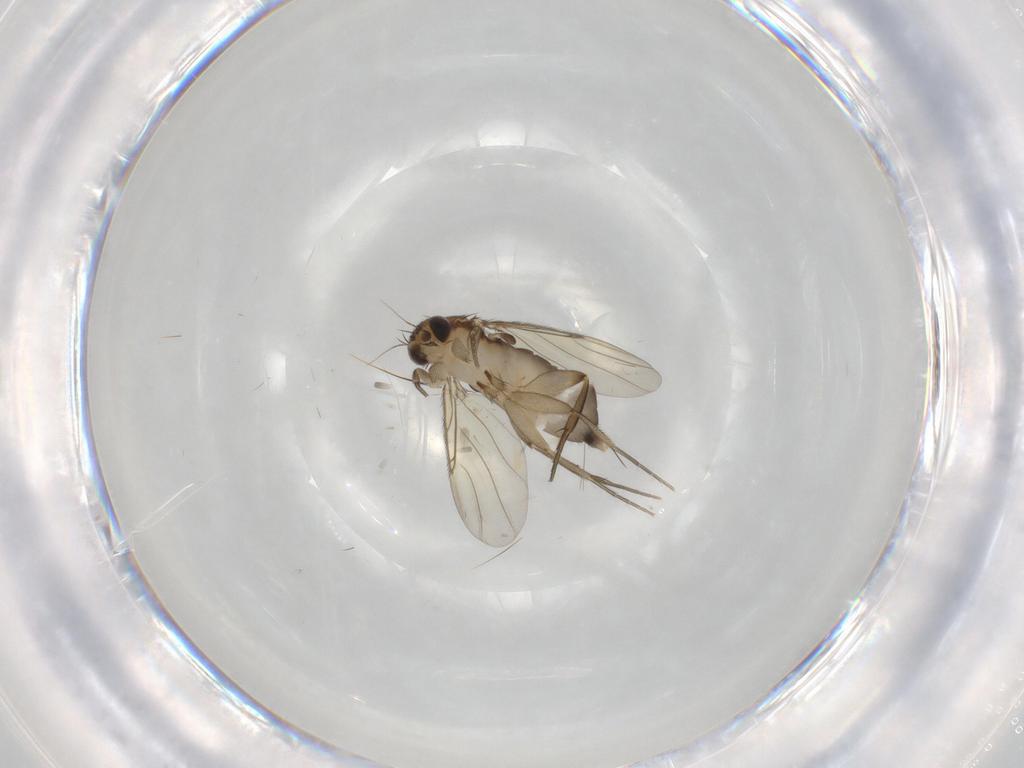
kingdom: Animalia
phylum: Arthropoda
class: Insecta
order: Diptera
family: Phoridae
